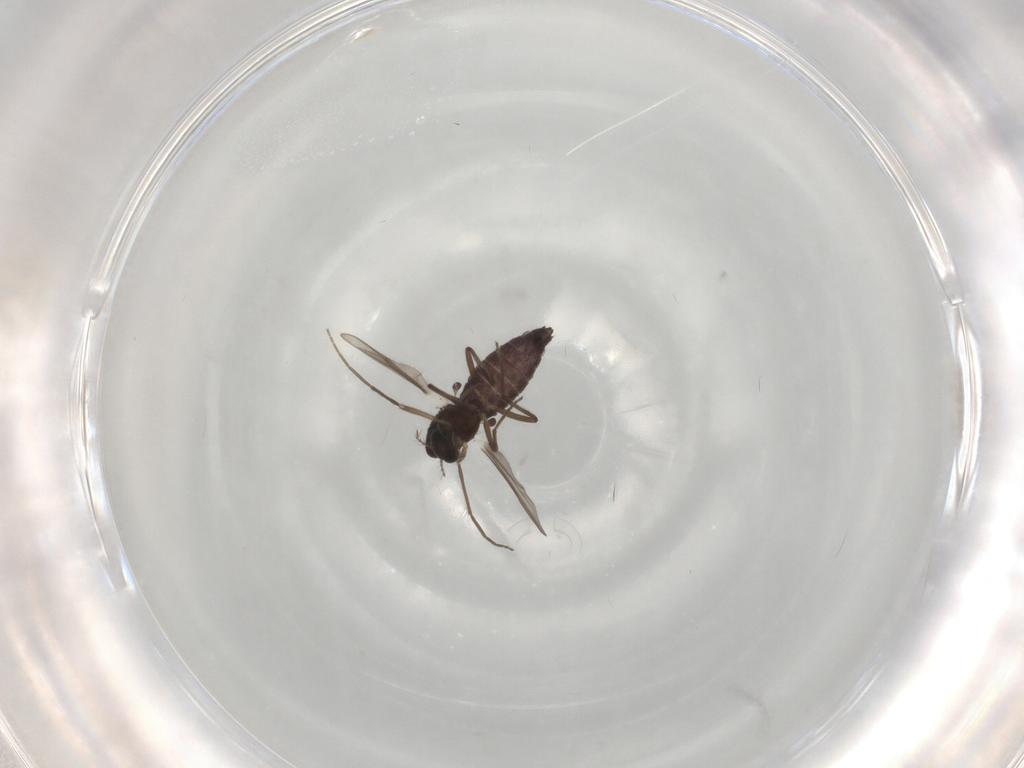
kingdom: Animalia
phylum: Arthropoda
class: Insecta
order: Diptera
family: Chironomidae
